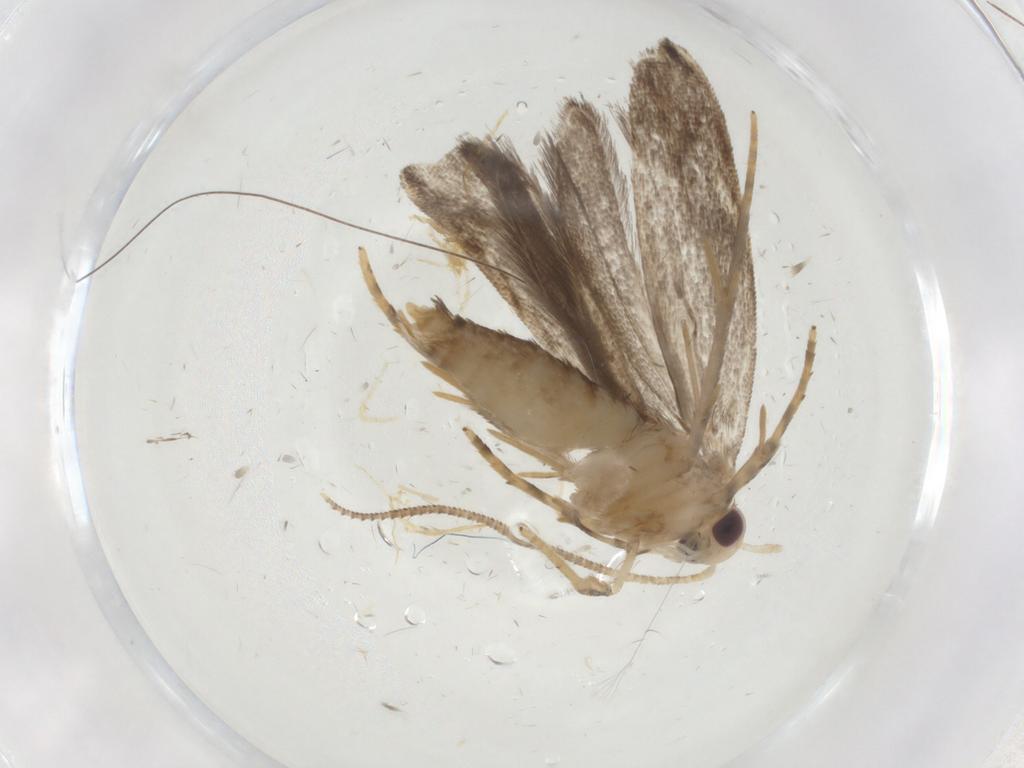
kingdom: Animalia
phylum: Arthropoda
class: Insecta
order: Lepidoptera
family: Gelechiidae
